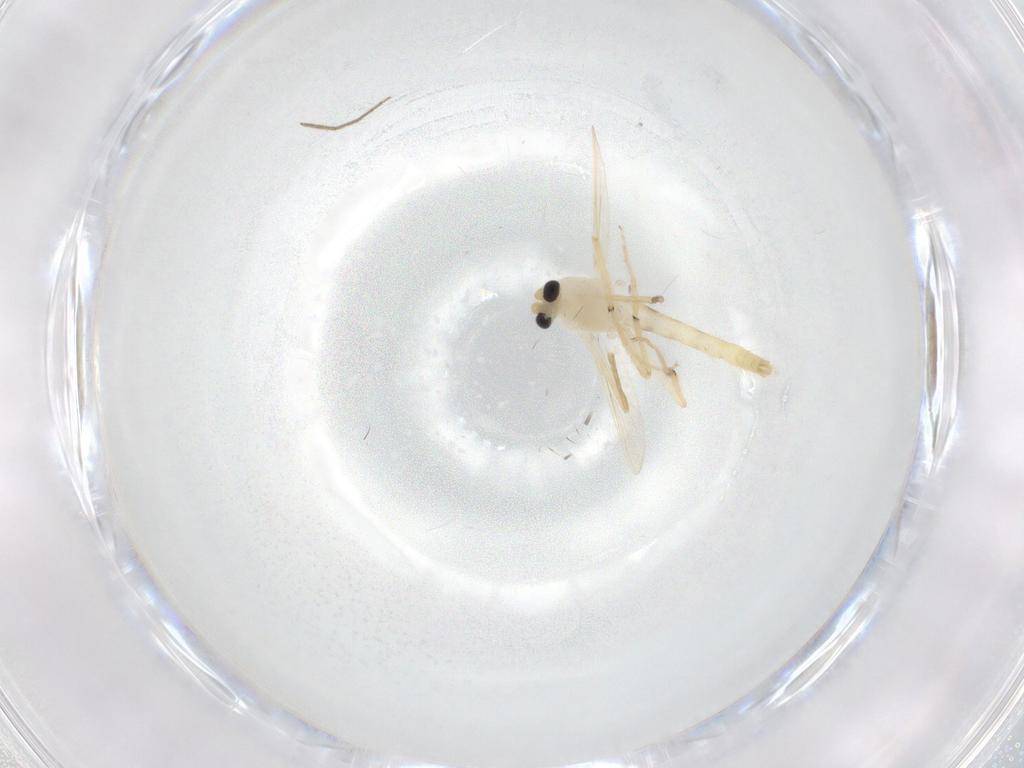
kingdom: Animalia
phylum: Arthropoda
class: Insecta
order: Diptera
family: Chironomidae
